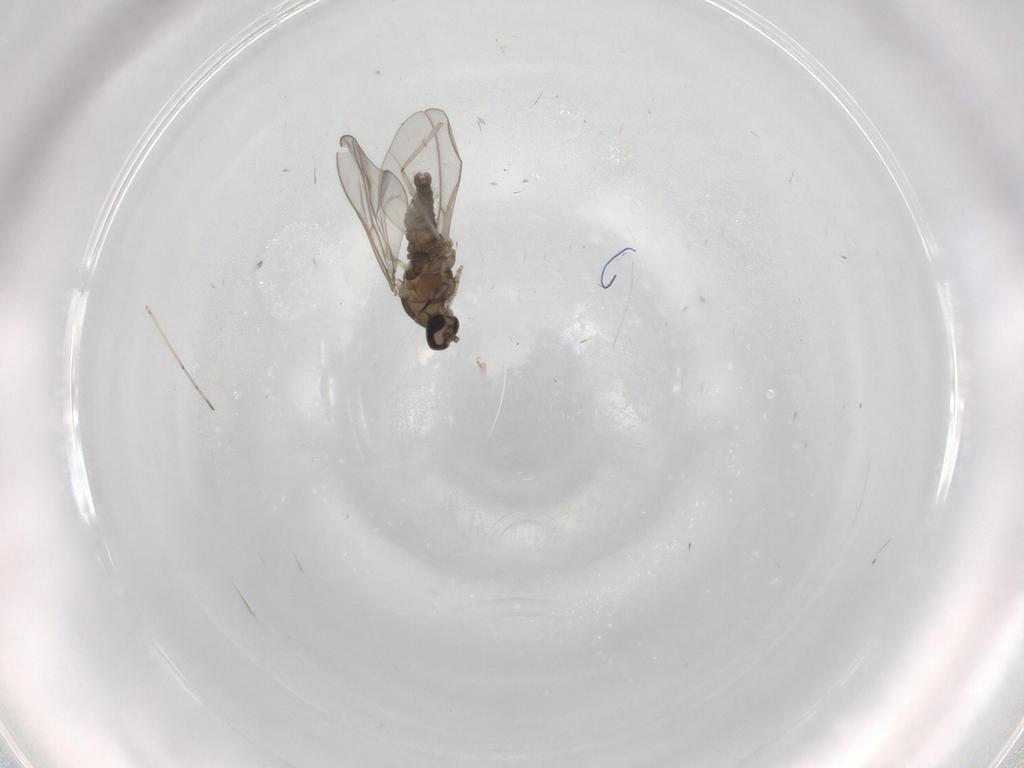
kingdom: Animalia
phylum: Arthropoda
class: Insecta
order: Diptera
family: Cecidomyiidae
